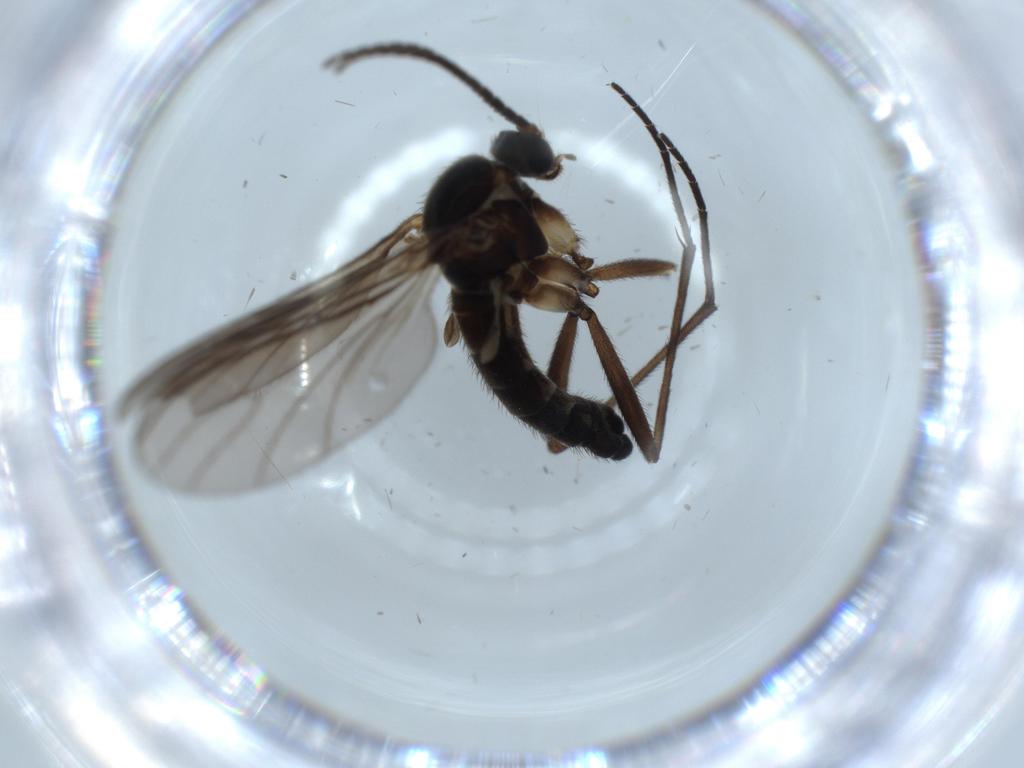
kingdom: Animalia
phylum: Arthropoda
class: Insecta
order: Diptera
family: Sciaridae
